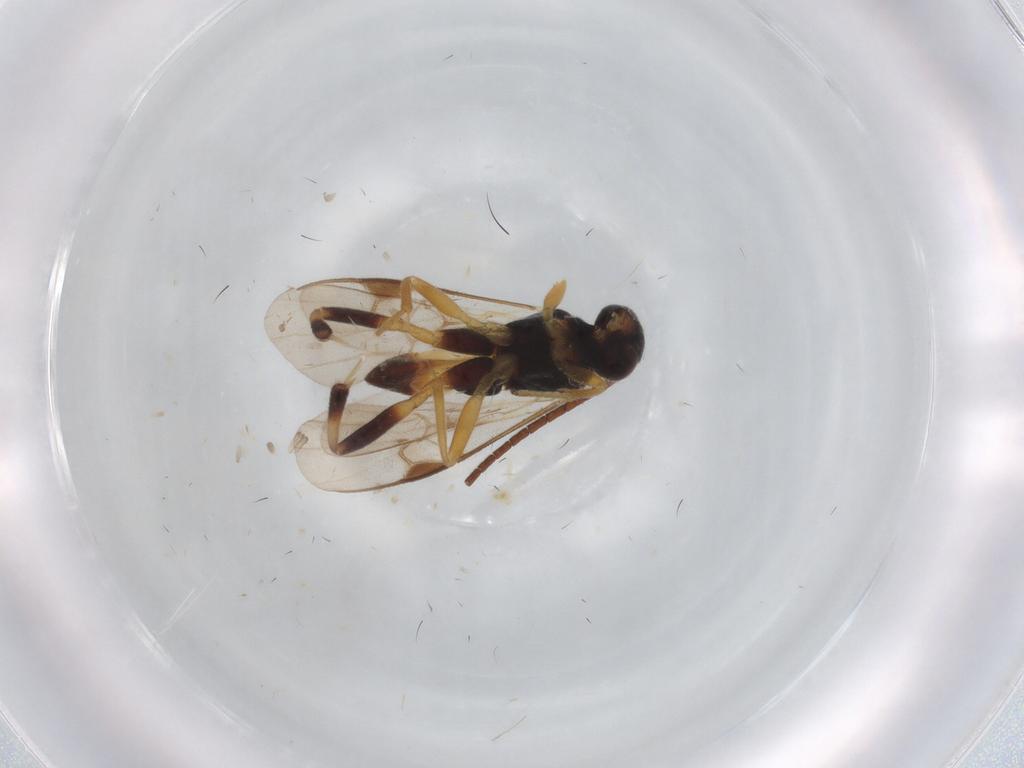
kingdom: Animalia
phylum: Arthropoda
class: Insecta
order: Hymenoptera
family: Braconidae
